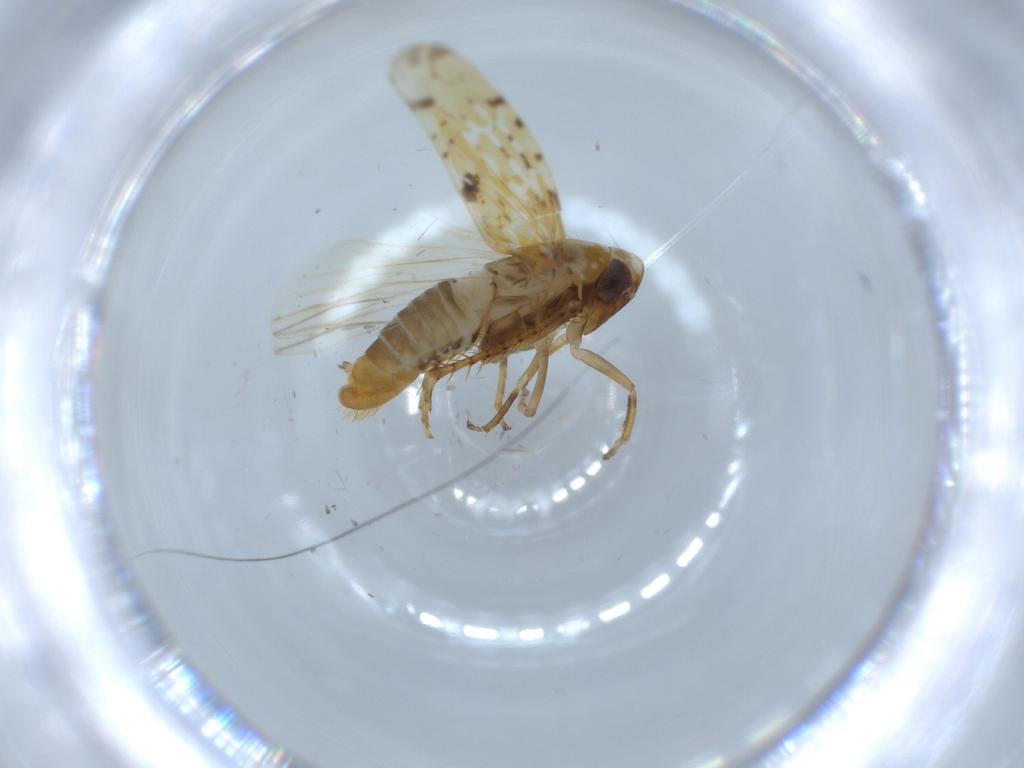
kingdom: Animalia
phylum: Arthropoda
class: Insecta
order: Hemiptera
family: Cicadellidae
